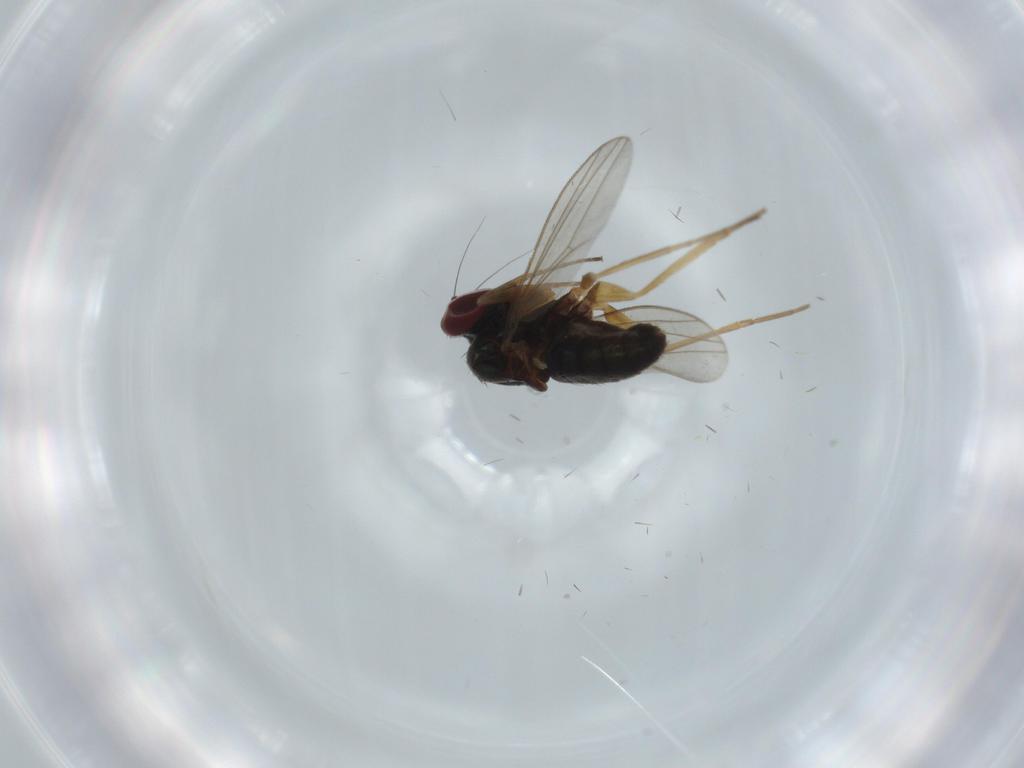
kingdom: Animalia
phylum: Arthropoda
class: Insecta
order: Diptera
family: Dolichopodidae
